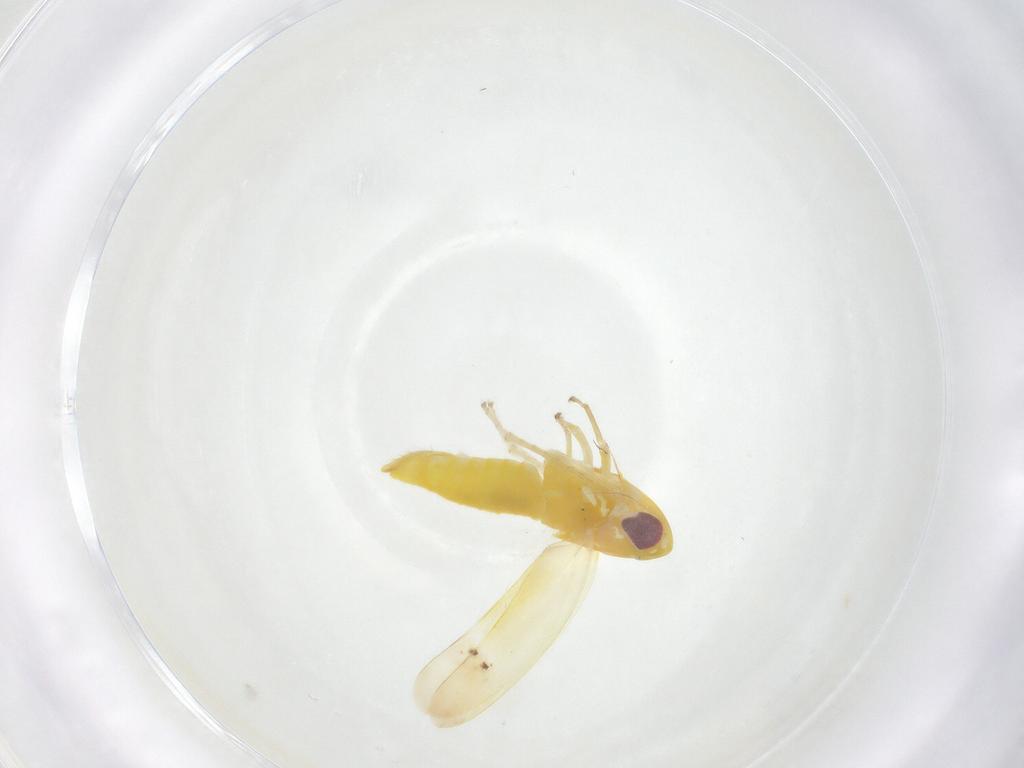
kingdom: Animalia
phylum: Arthropoda
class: Insecta
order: Hemiptera
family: Cicadellidae
